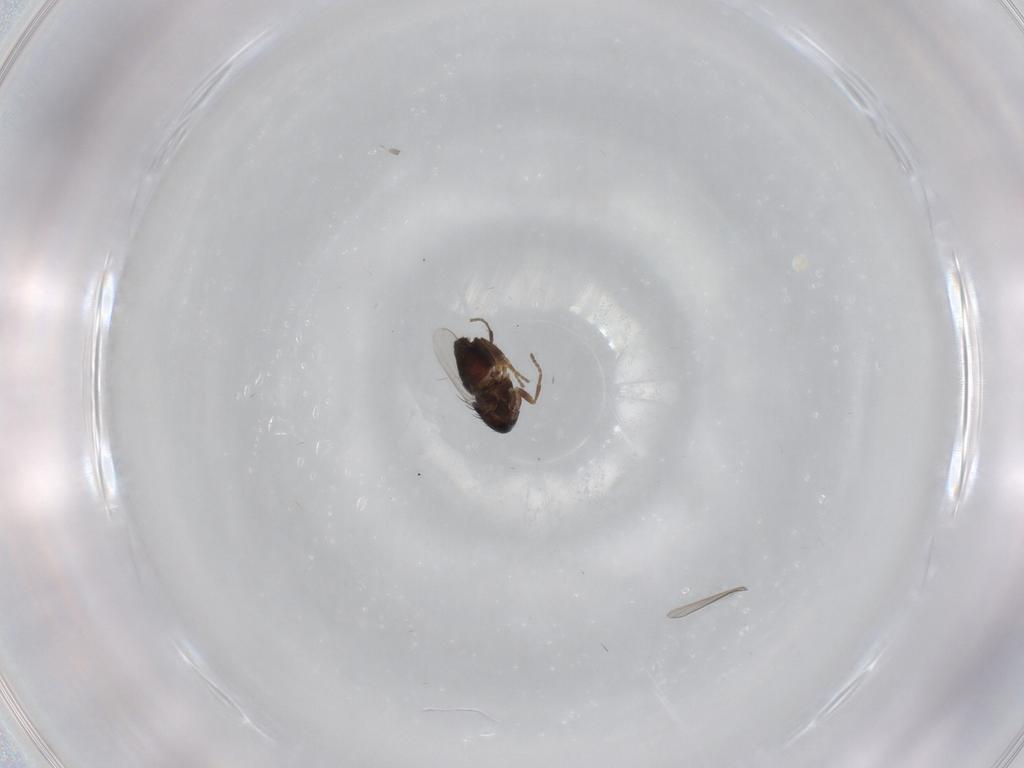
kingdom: Animalia
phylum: Arthropoda
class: Insecta
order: Diptera
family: Sphaeroceridae
